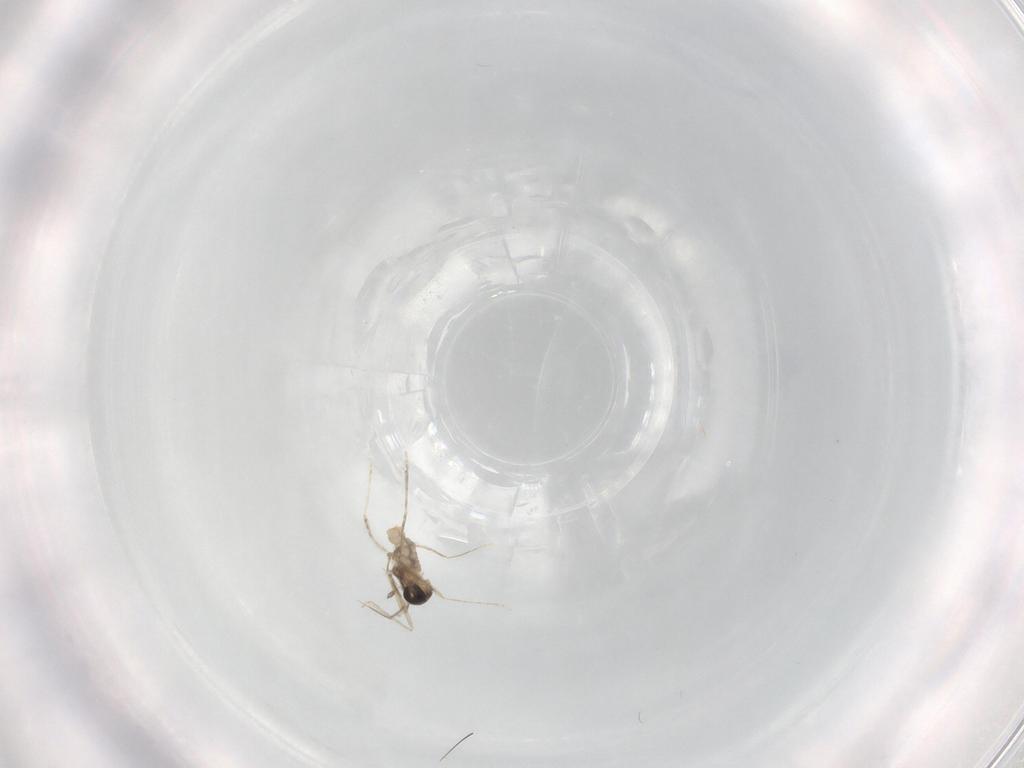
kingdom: Animalia
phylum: Arthropoda
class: Insecta
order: Diptera
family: Cecidomyiidae
